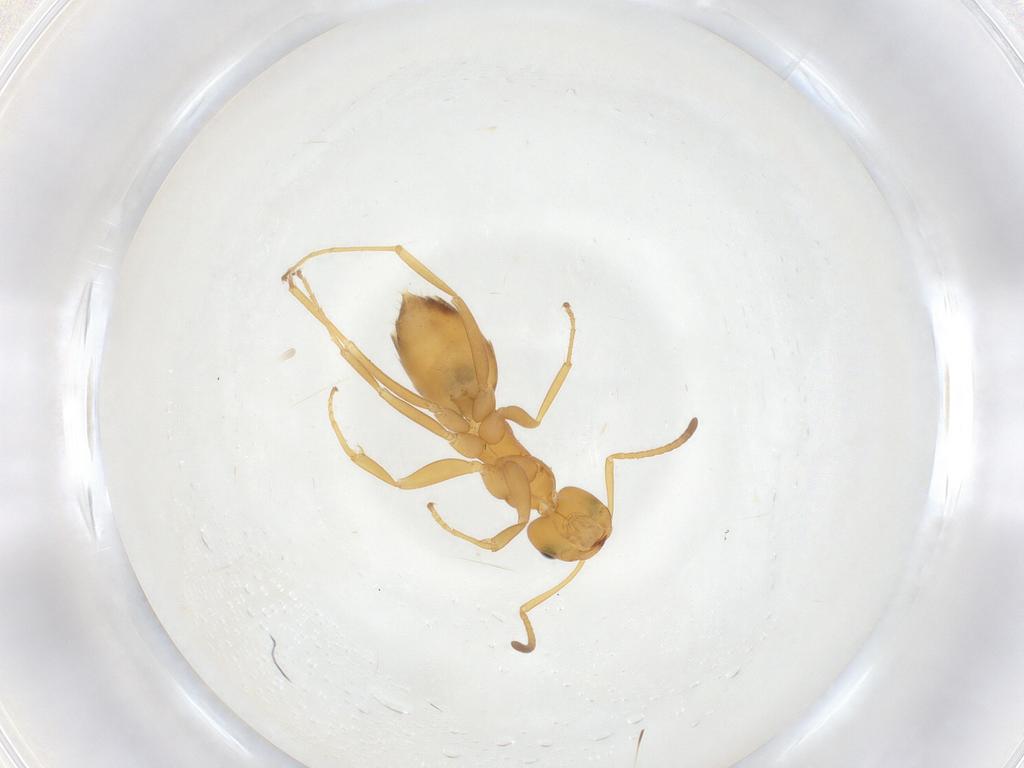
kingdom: Animalia
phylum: Arthropoda
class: Insecta
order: Hymenoptera
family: Formicidae
